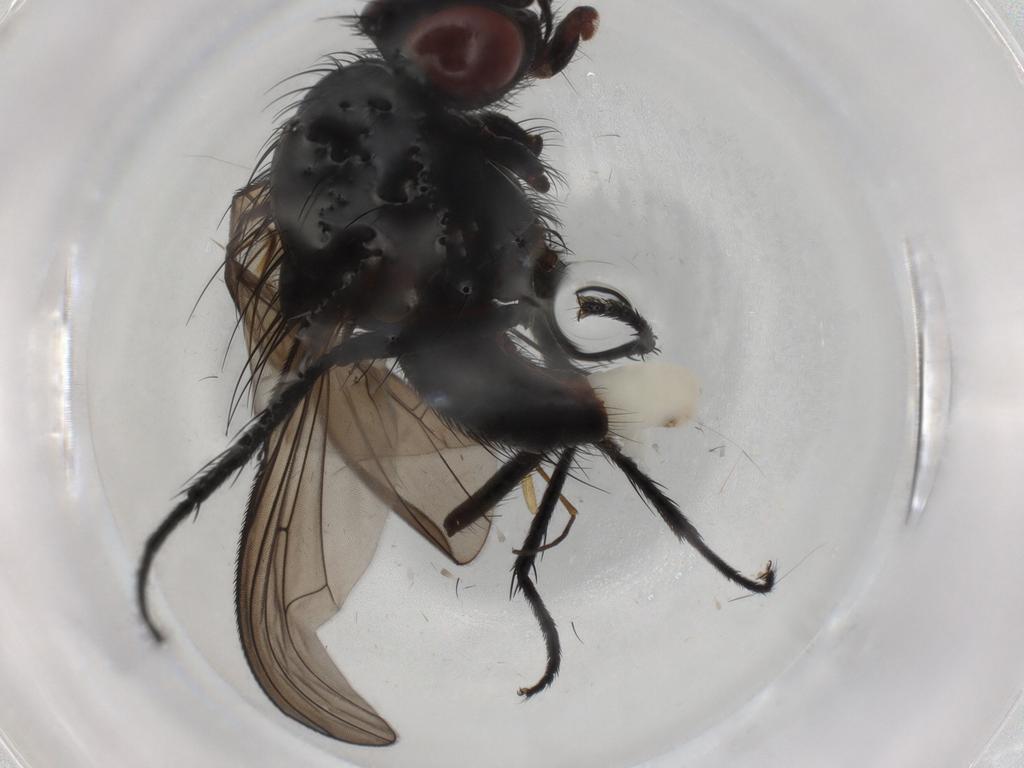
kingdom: Animalia
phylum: Arthropoda
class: Insecta
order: Diptera
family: Anthomyiidae
